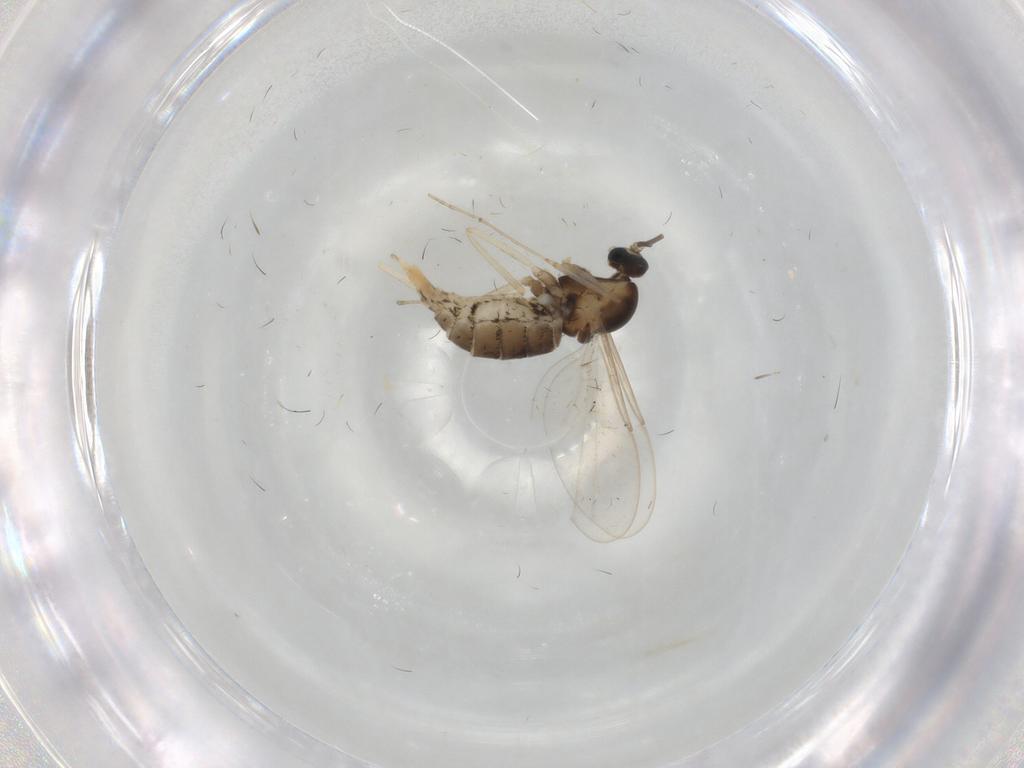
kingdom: Animalia
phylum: Arthropoda
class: Insecta
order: Diptera
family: Cecidomyiidae
